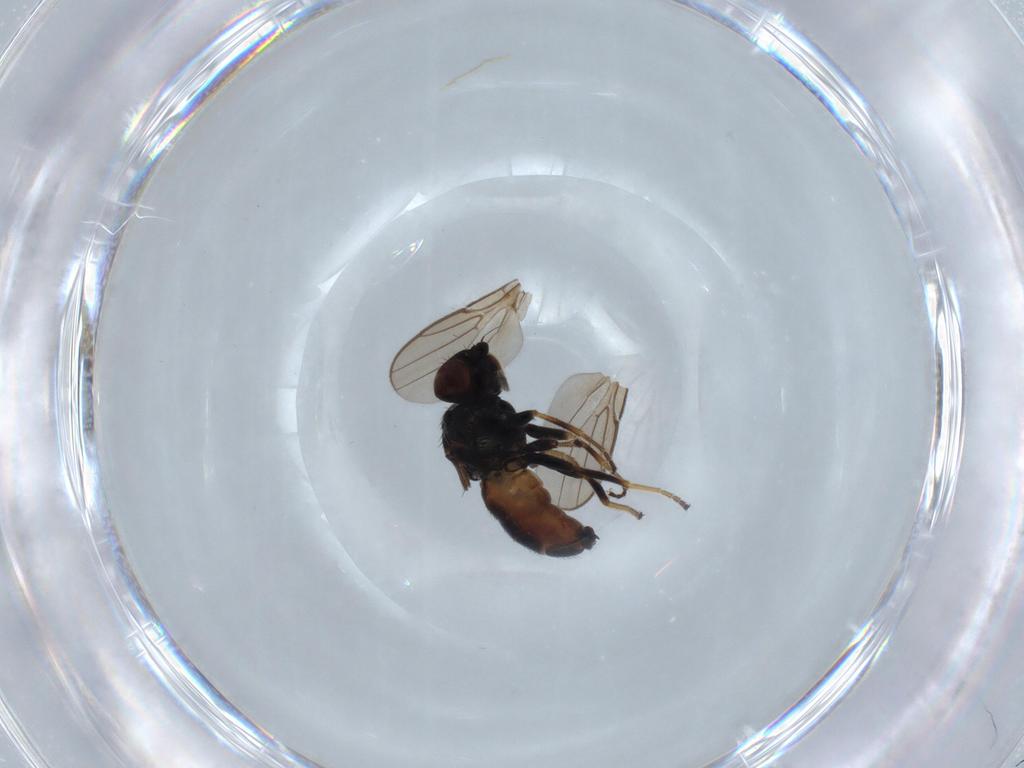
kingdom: Animalia
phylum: Arthropoda
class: Insecta
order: Diptera
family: Chloropidae
